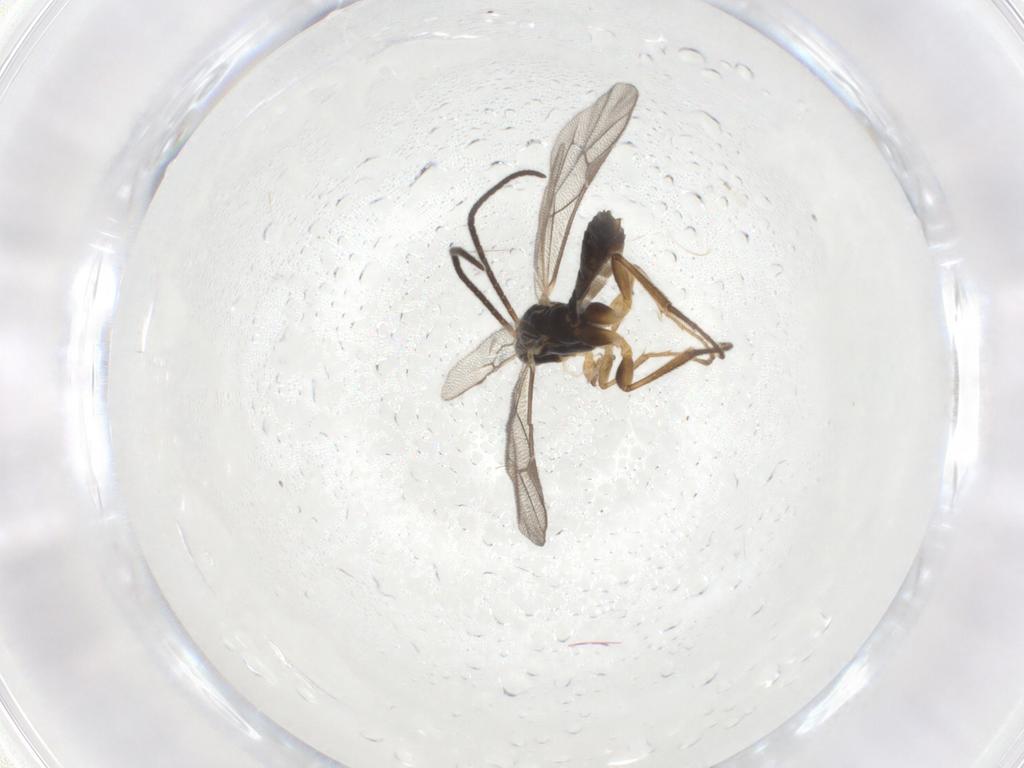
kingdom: Animalia
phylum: Arthropoda
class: Insecta
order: Hymenoptera
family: Ichneumonidae
